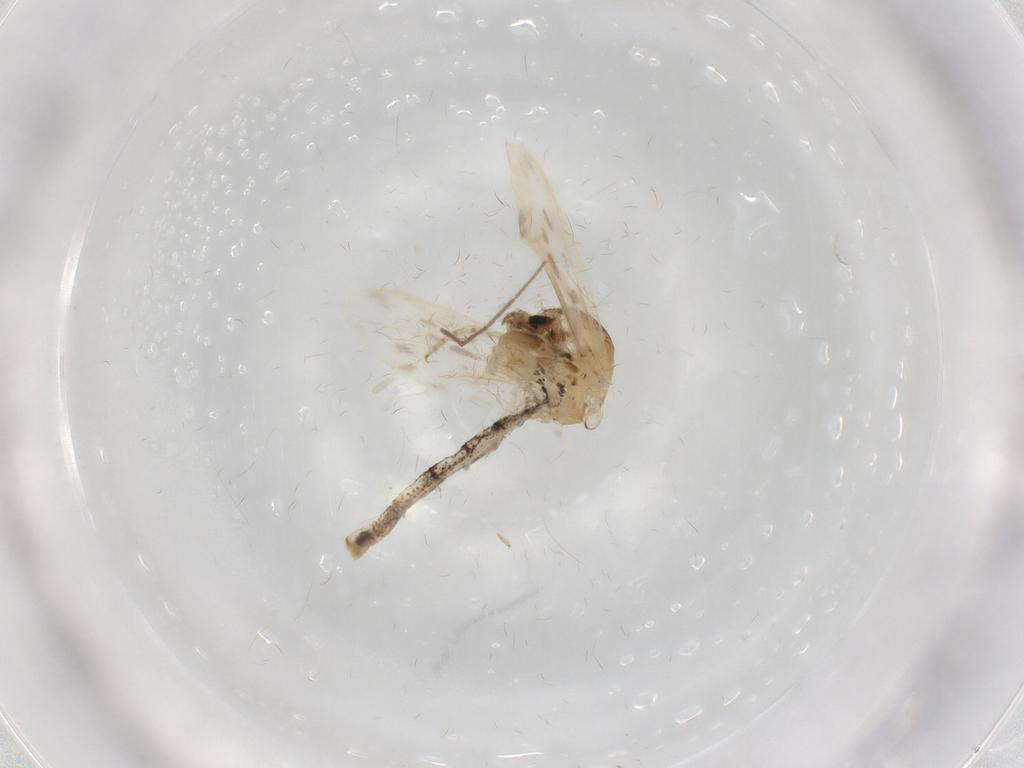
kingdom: Animalia
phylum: Arthropoda
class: Insecta
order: Diptera
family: Chaoboridae
